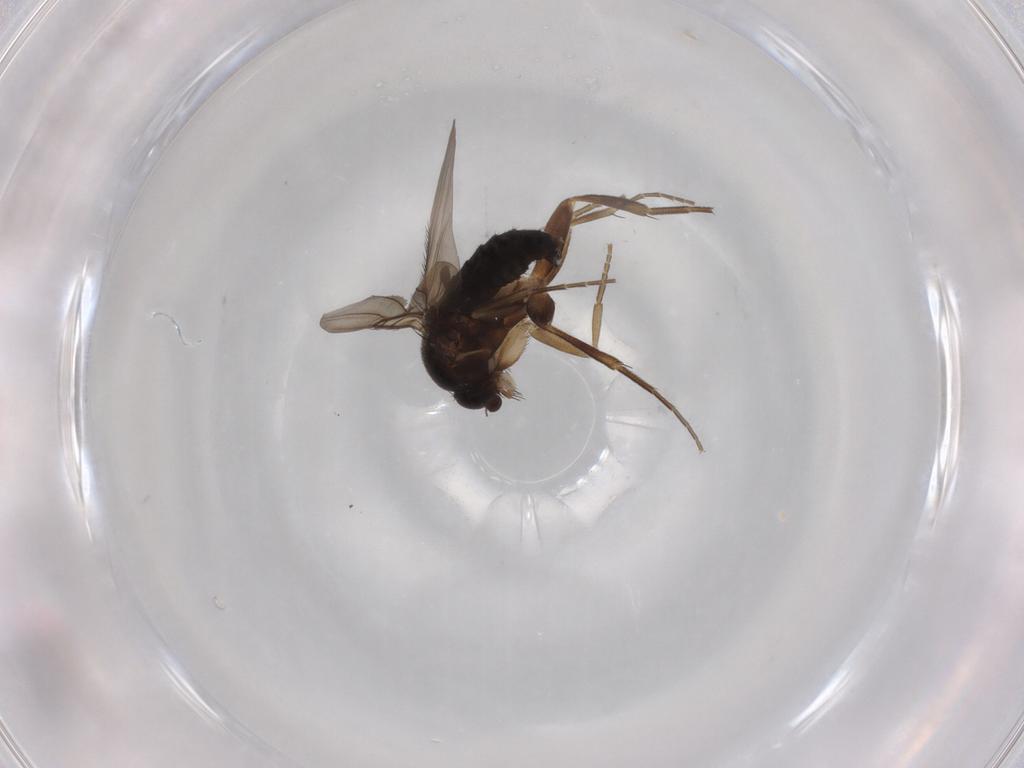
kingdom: Animalia
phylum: Arthropoda
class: Insecta
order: Diptera
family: Phoridae
